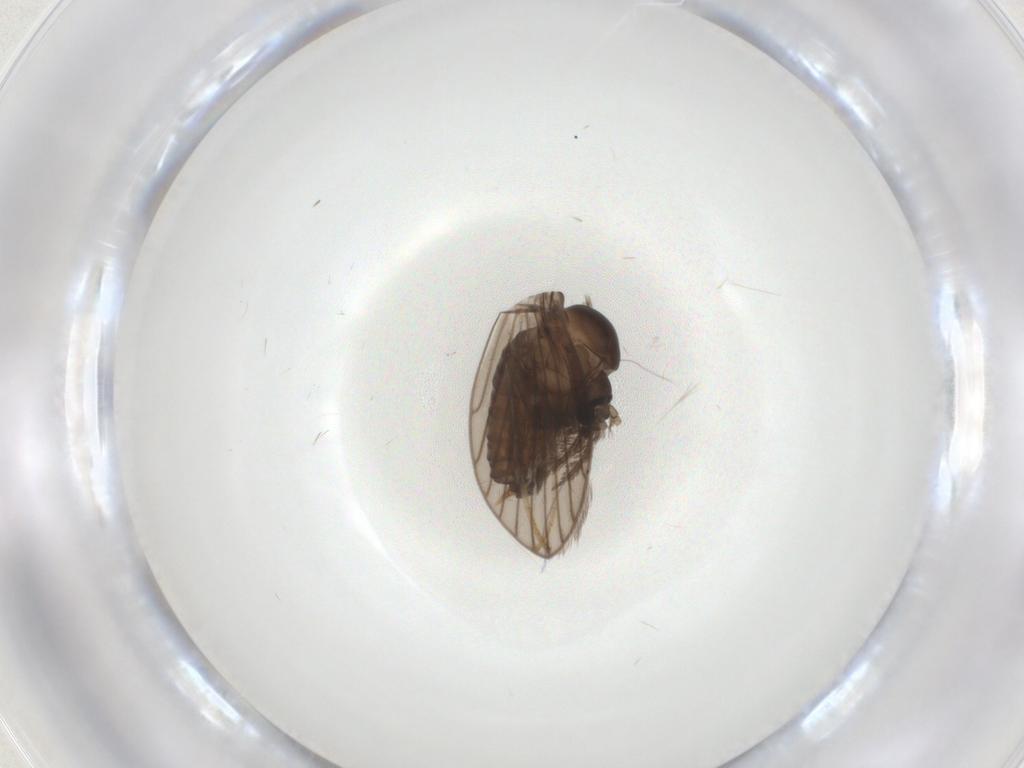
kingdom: Animalia
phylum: Arthropoda
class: Insecta
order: Diptera
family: Psychodidae
